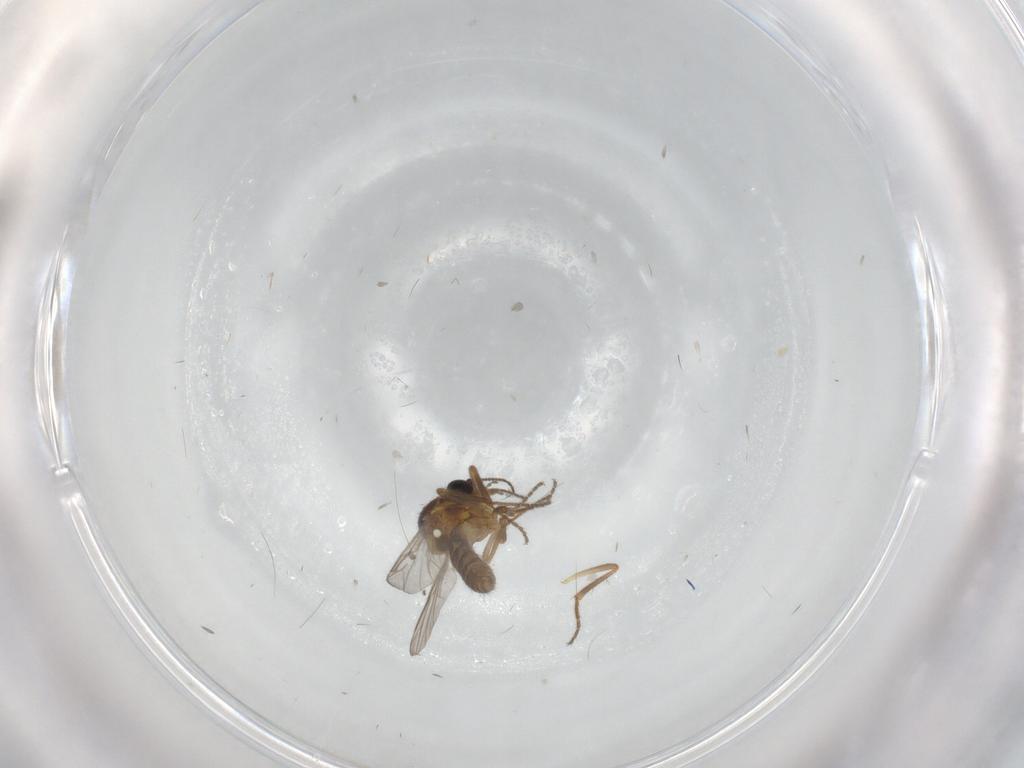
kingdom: Animalia
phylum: Arthropoda
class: Insecta
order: Diptera
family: Ceratopogonidae
